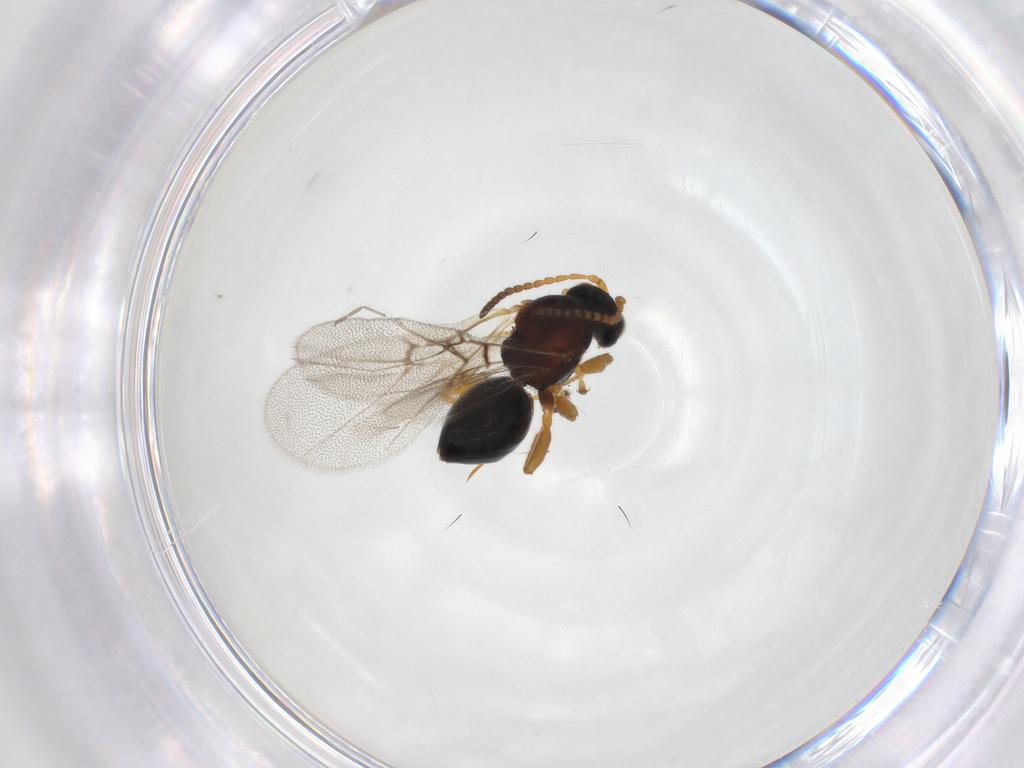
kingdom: Animalia
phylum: Arthropoda
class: Insecta
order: Hymenoptera
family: Cynipidae
